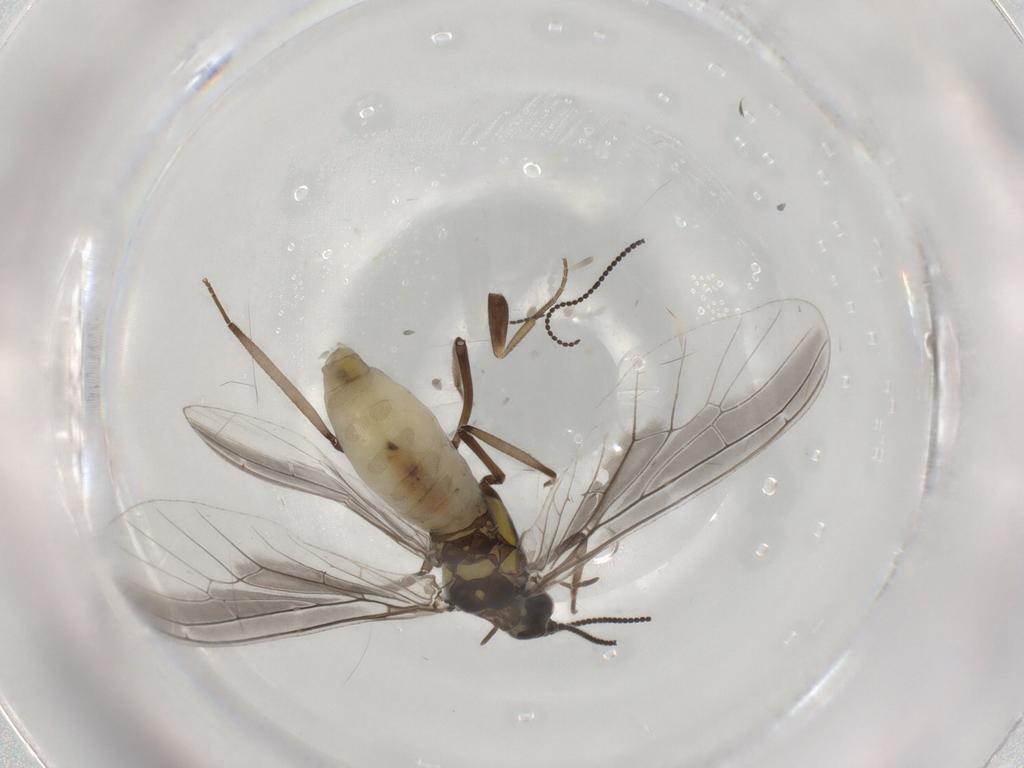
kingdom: Animalia
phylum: Arthropoda
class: Insecta
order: Neuroptera
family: Coniopterygidae
